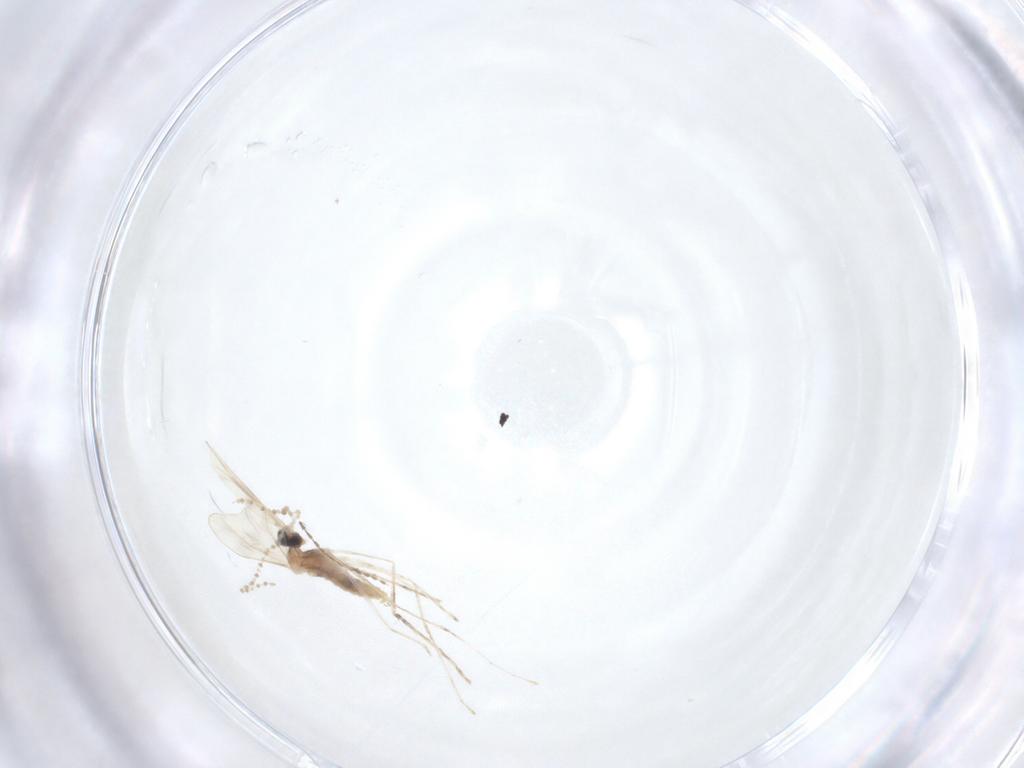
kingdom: Animalia
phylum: Arthropoda
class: Insecta
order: Diptera
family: Cecidomyiidae
